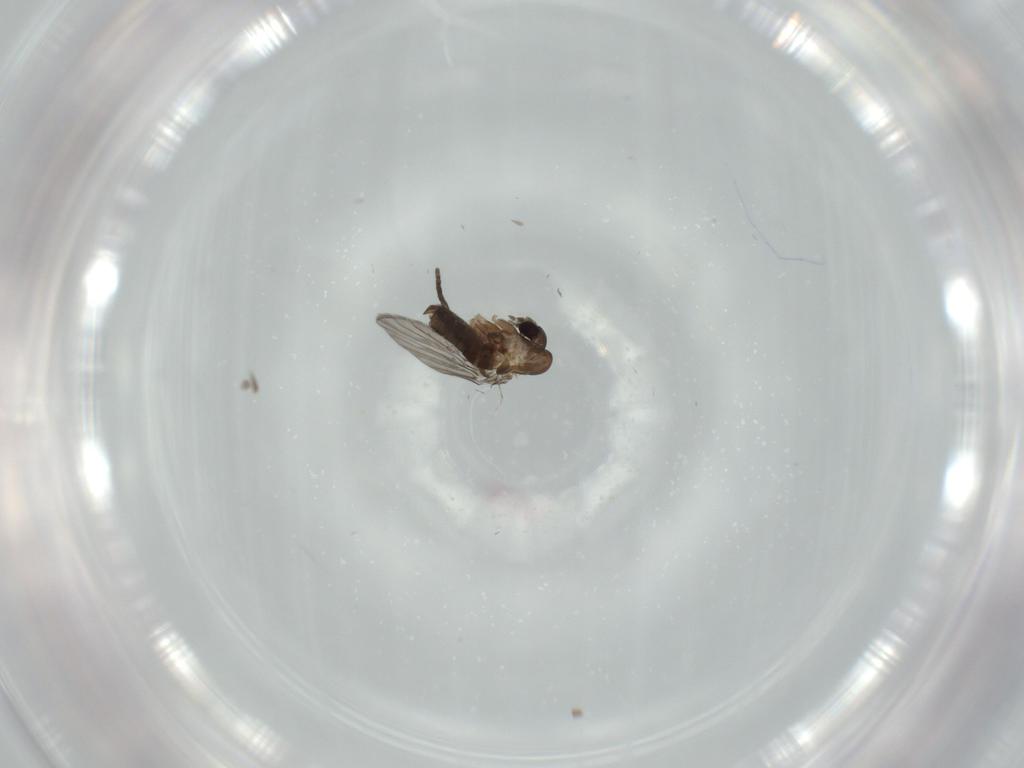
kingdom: Animalia
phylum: Arthropoda
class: Insecta
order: Diptera
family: Psychodidae
